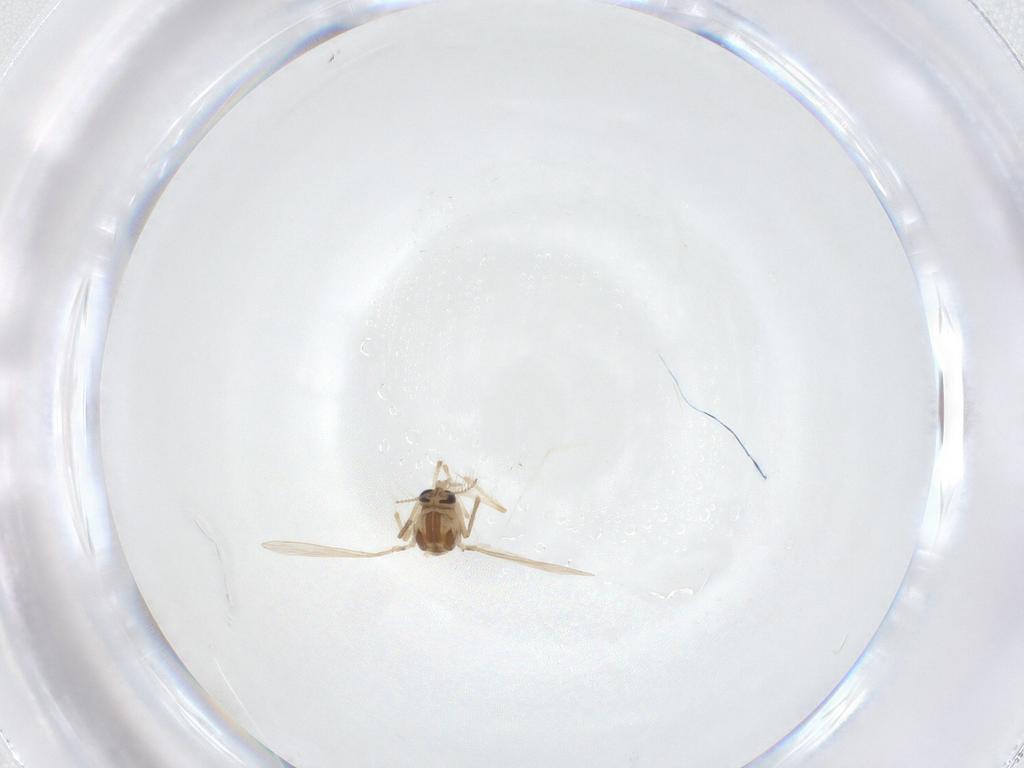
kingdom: Animalia
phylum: Arthropoda
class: Insecta
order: Diptera
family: Chironomidae
